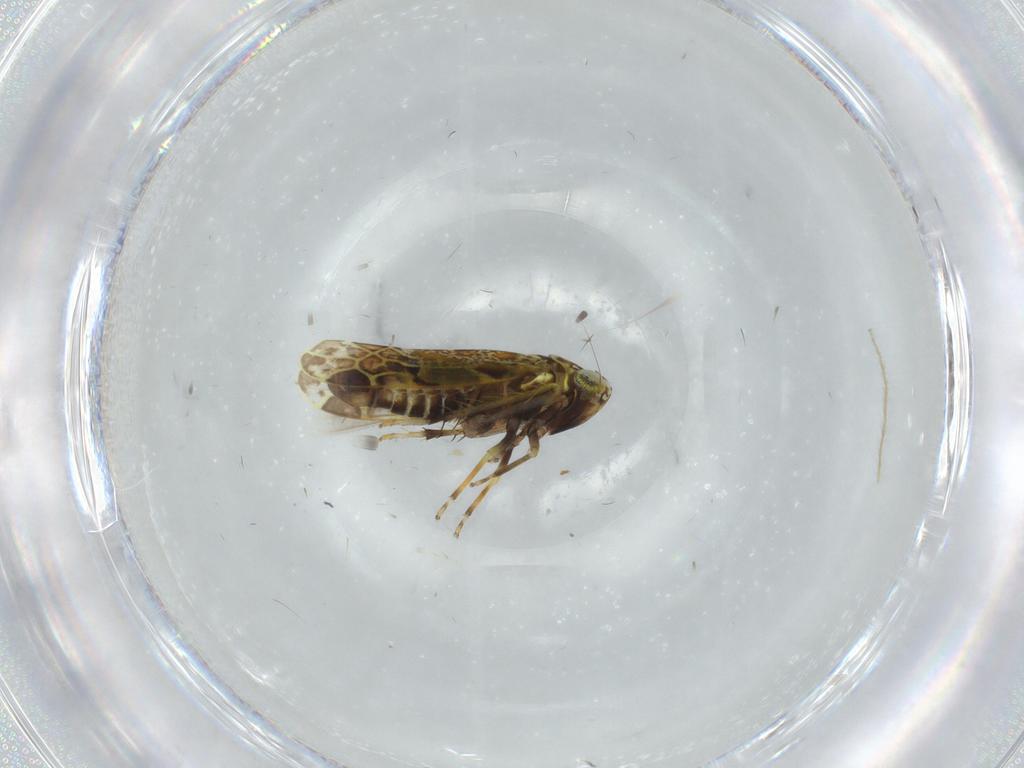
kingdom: Animalia
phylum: Arthropoda
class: Insecta
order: Hemiptera
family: Cicadellidae
